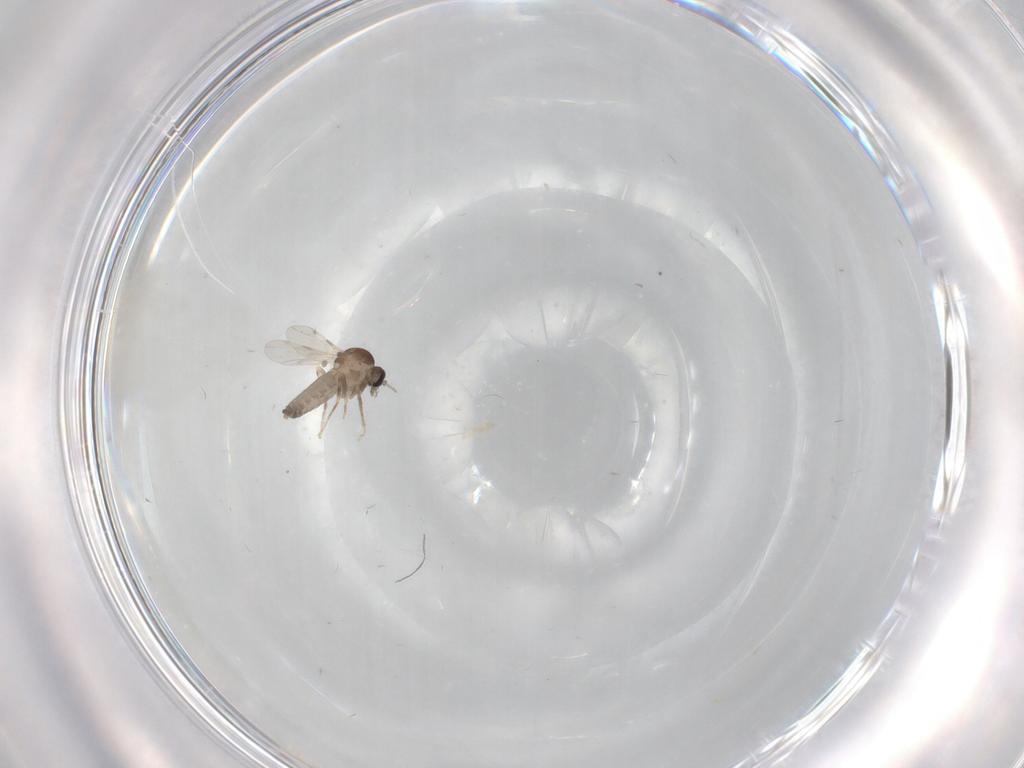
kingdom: Animalia
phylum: Arthropoda
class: Insecta
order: Diptera
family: Ceratopogonidae
